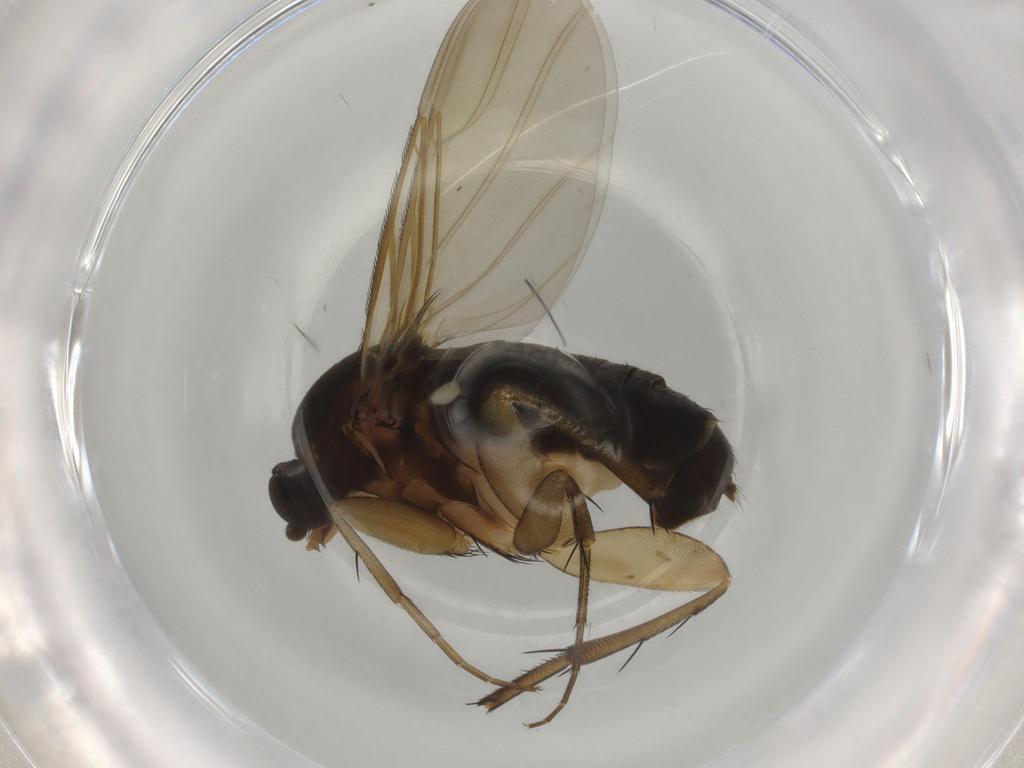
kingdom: Animalia
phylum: Arthropoda
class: Insecta
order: Diptera
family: Phoridae
